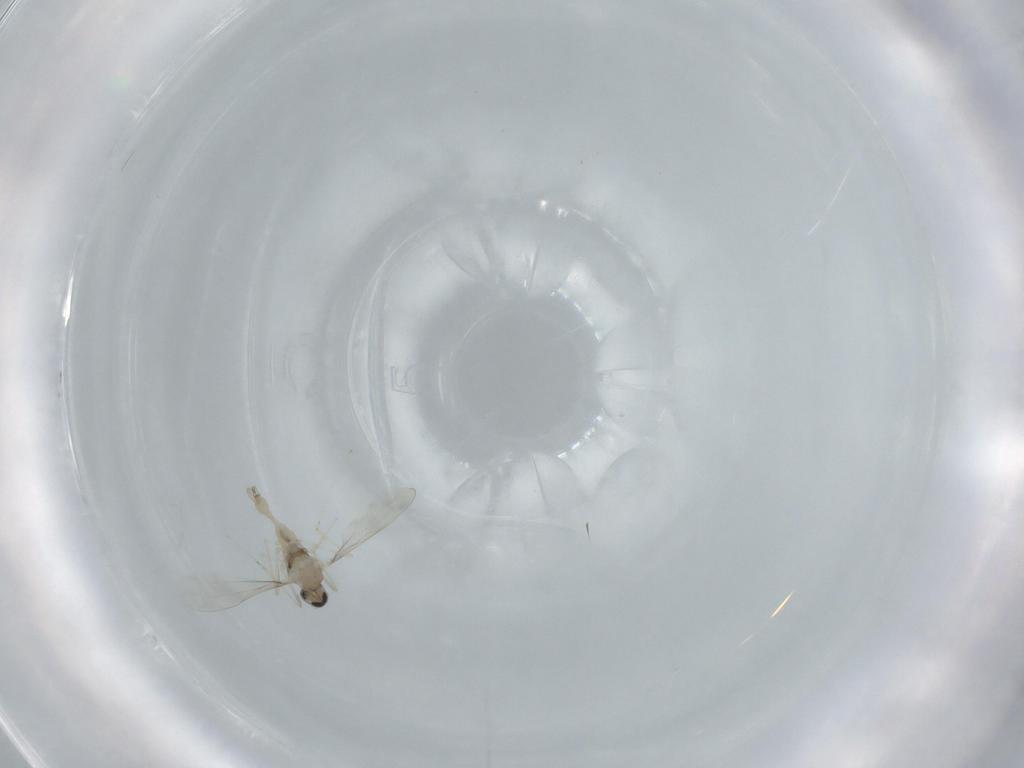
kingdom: Animalia
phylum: Arthropoda
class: Insecta
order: Diptera
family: Cecidomyiidae
